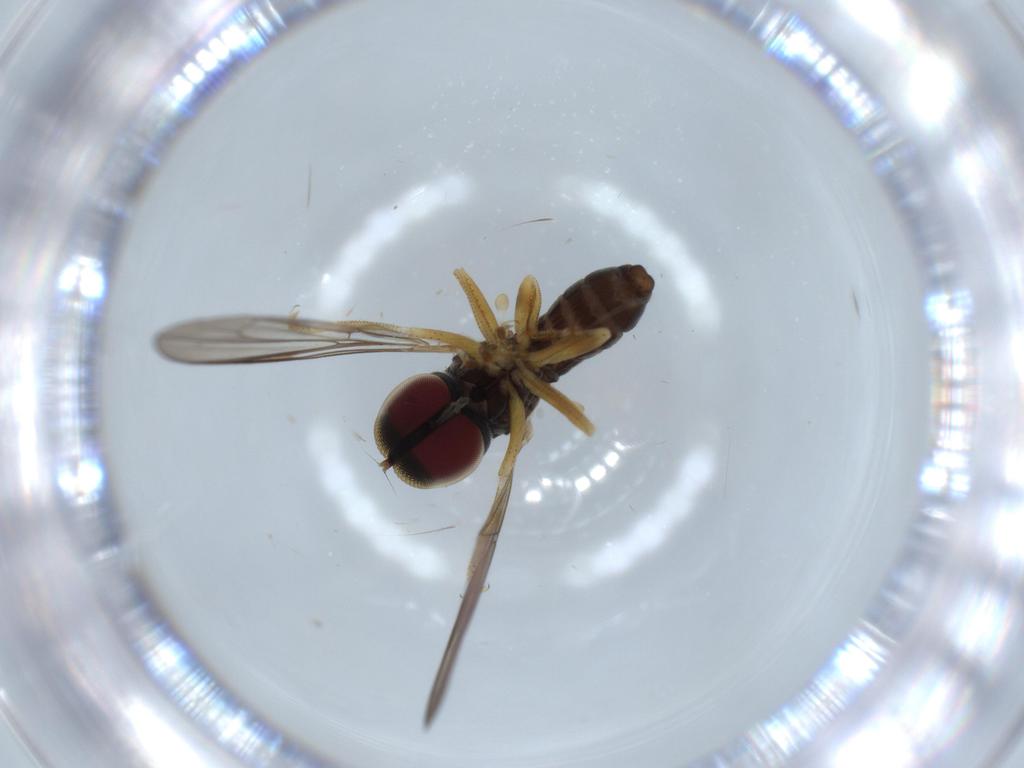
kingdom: Animalia
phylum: Arthropoda
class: Insecta
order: Diptera
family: Pipunculidae
